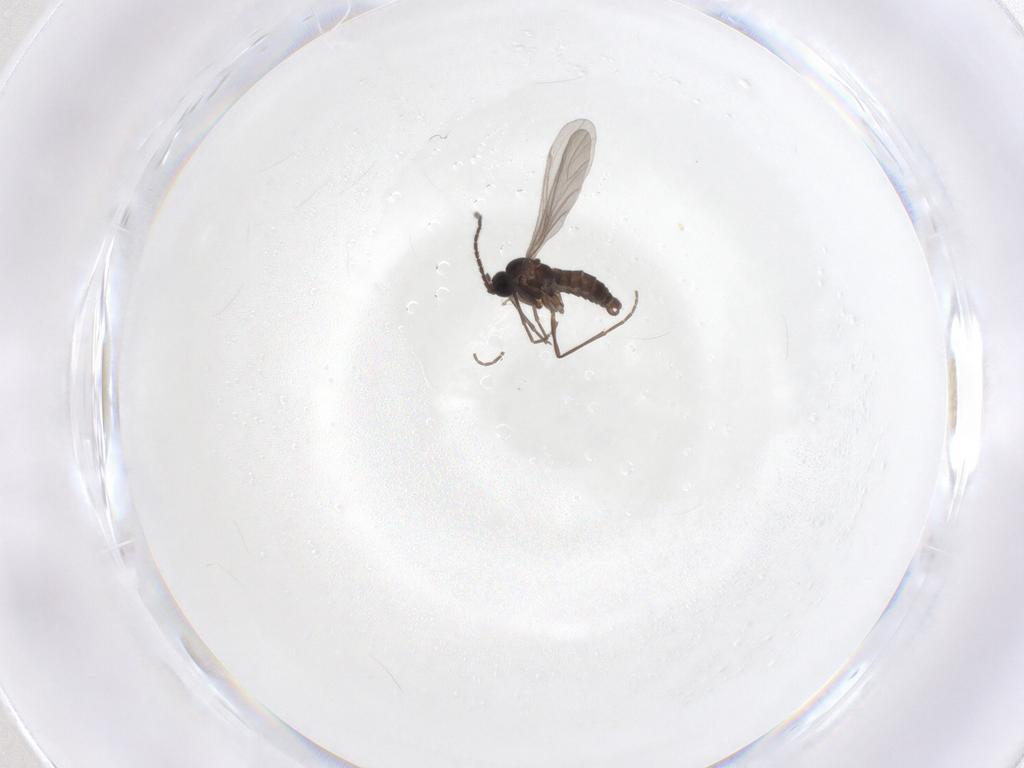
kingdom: Animalia
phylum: Arthropoda
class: Insecta
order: Diptera
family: Sciaridae
